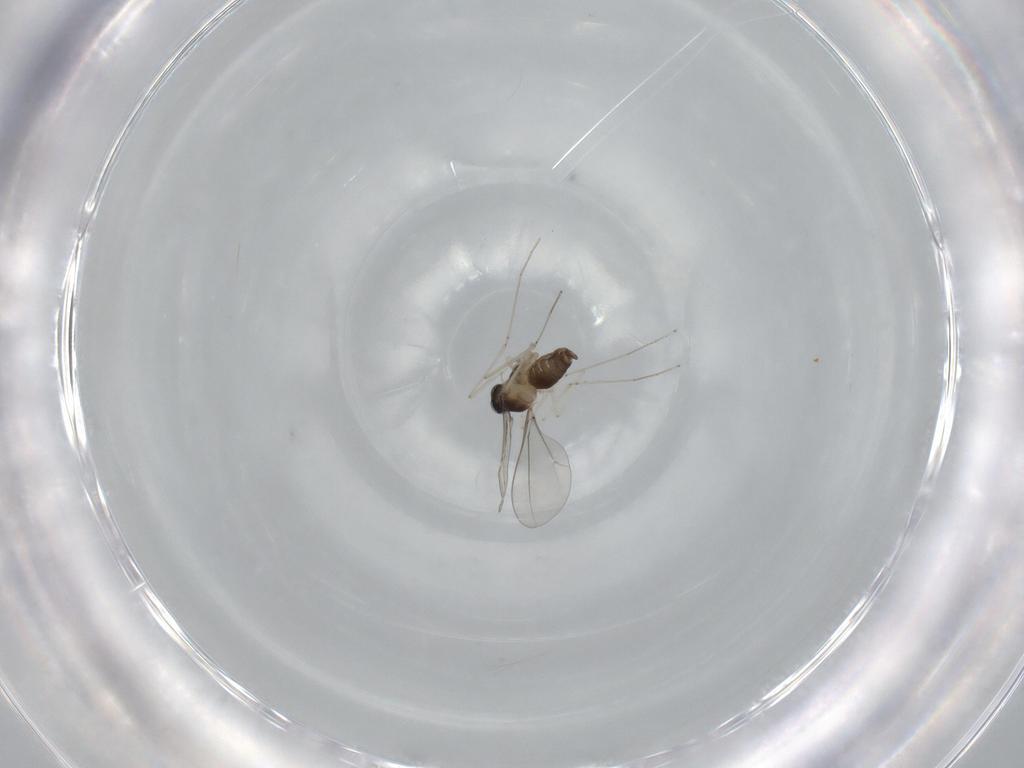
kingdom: Animalia
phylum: Arthropoda
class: Insecta
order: Diptera
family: Cecidomyiidae
